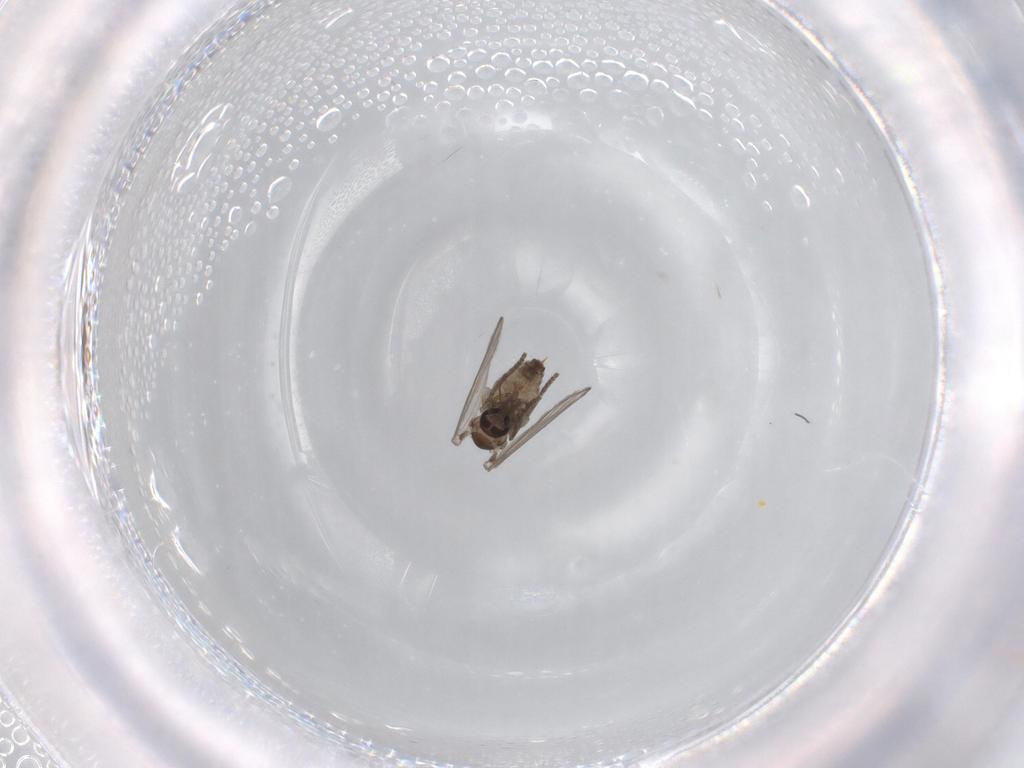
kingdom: Animalia
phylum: Arthropoda
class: Insecta
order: Diptera
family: Psychodidae
